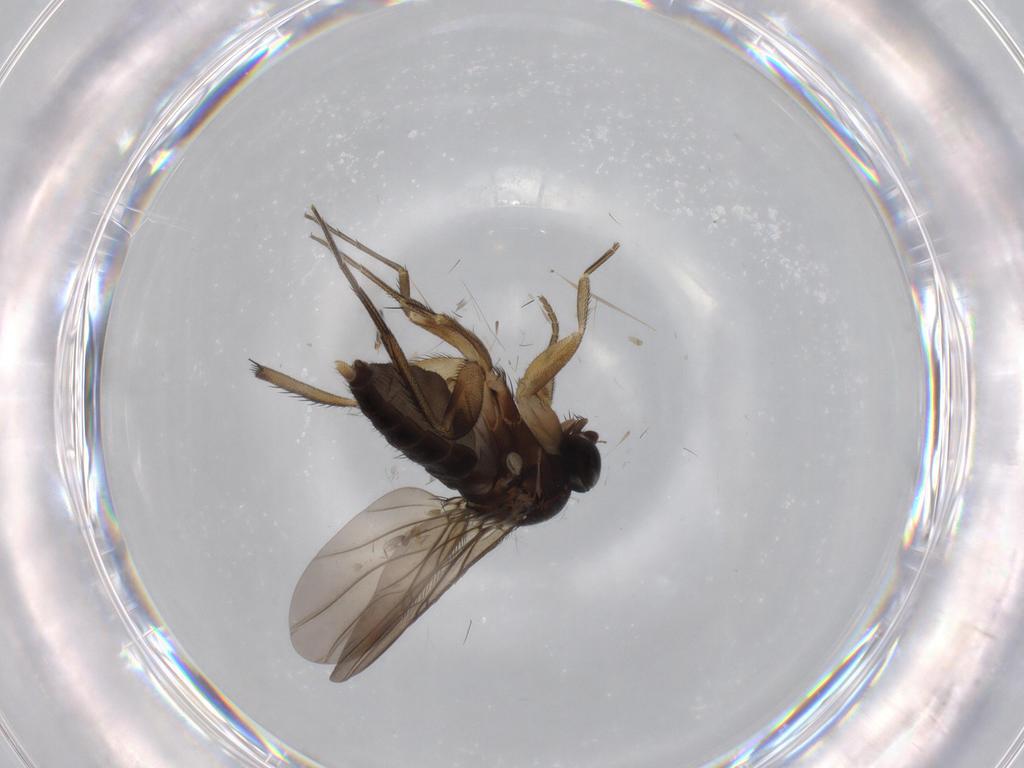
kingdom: Animalia
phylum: Arthropoda
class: Insecta
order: Diptera
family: Phoridae
